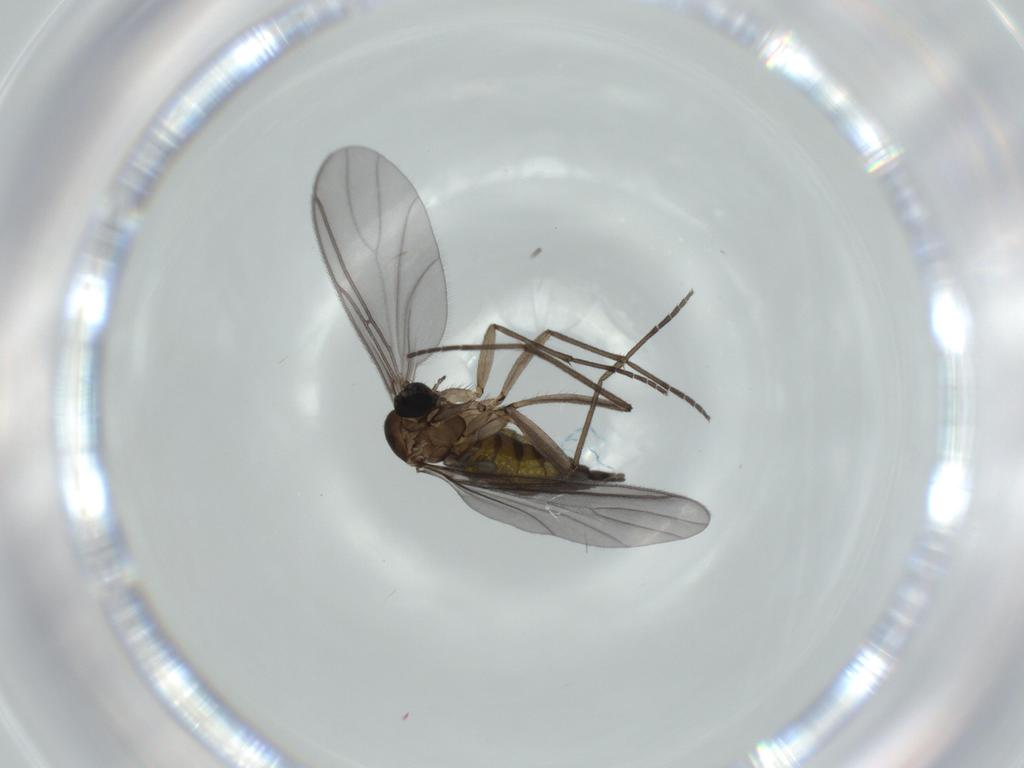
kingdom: Animalia
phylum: Arthropoda
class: Insecta
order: Diptera
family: Sciaridae
